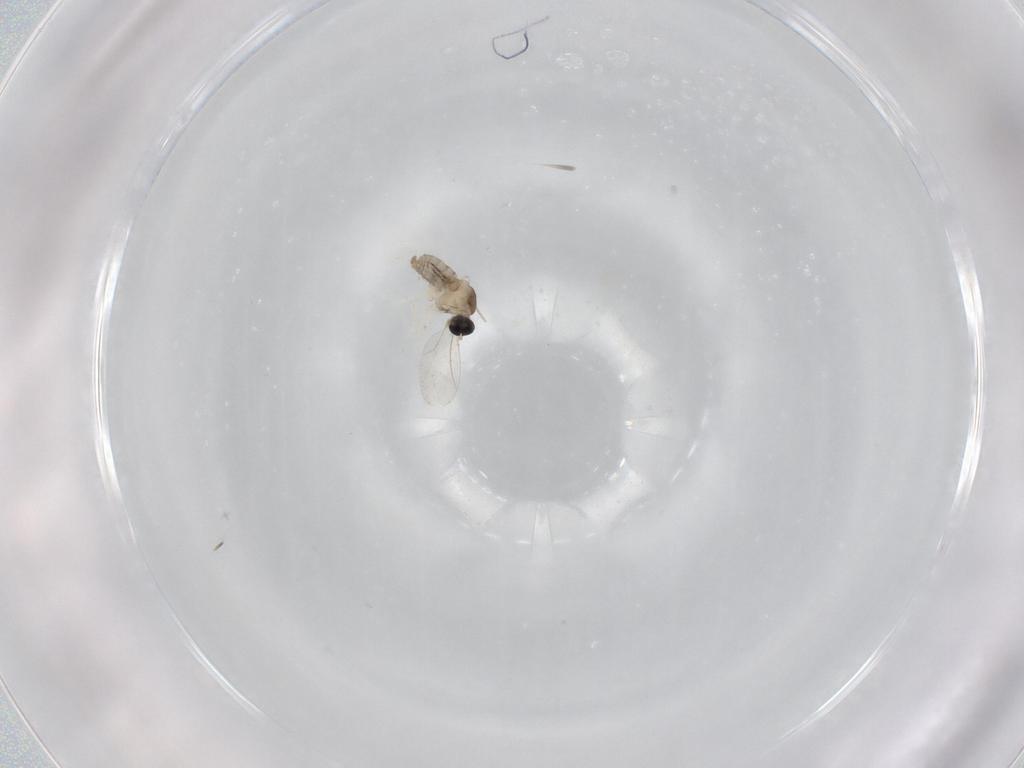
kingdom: Animalia
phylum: Arthropoda
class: Insecta
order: Diptera
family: Cecidomyiidae
